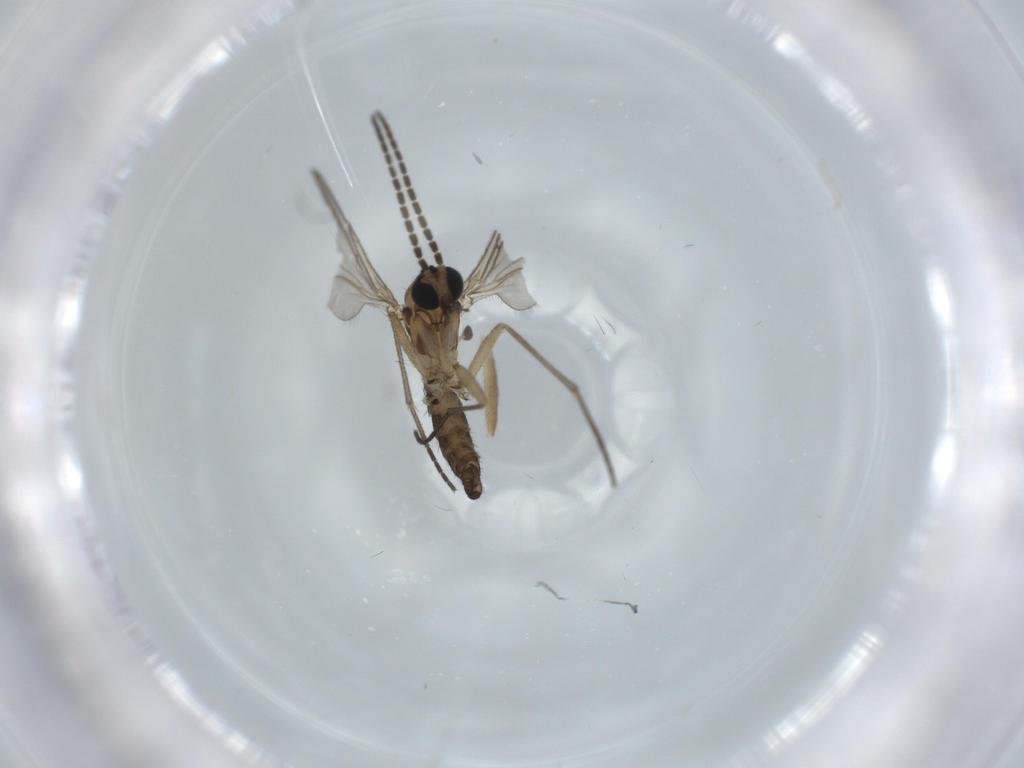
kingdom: Animalia
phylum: Arthropoda
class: Insecta
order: Diptera
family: Sciaridae
